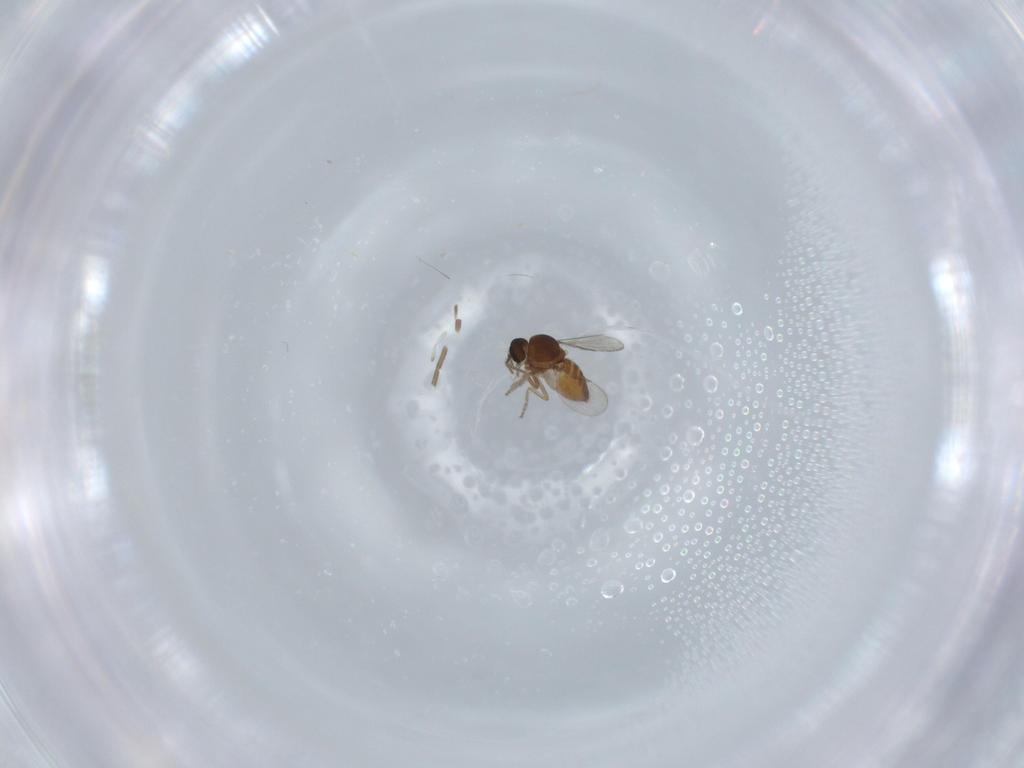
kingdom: Animalia
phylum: Arthropoda
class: Insecta
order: Diptera
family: Ceratopogonidae
